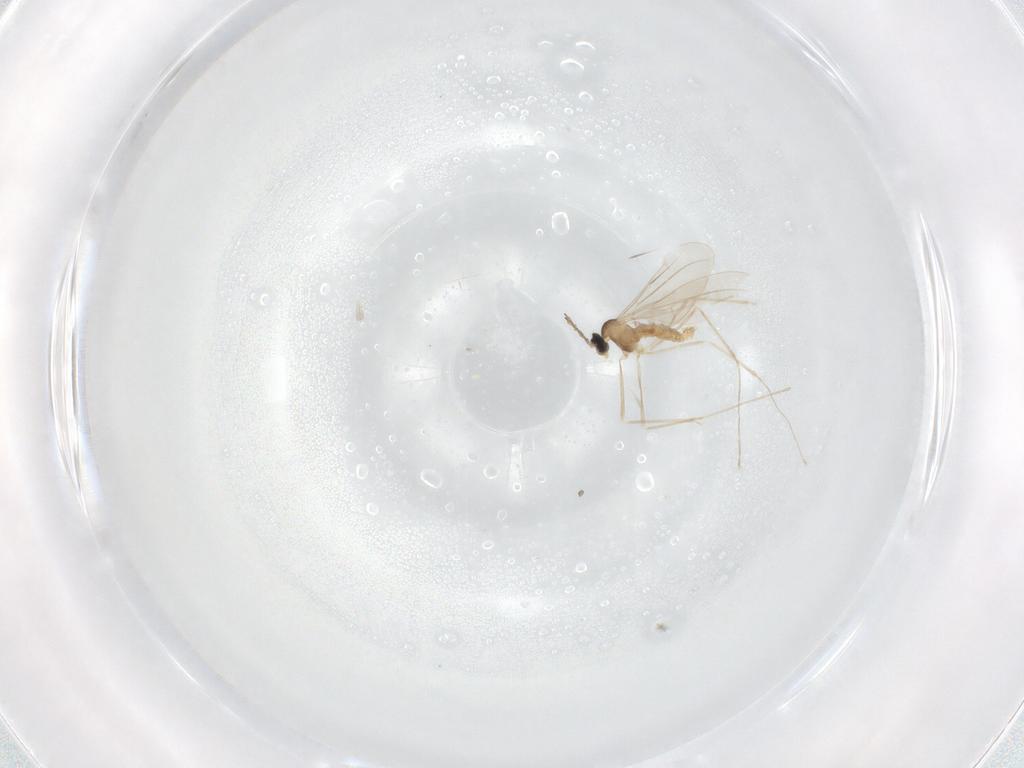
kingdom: Animalia
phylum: Arthropoda
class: Insecta
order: Diptera
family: Cecidomyiidae
